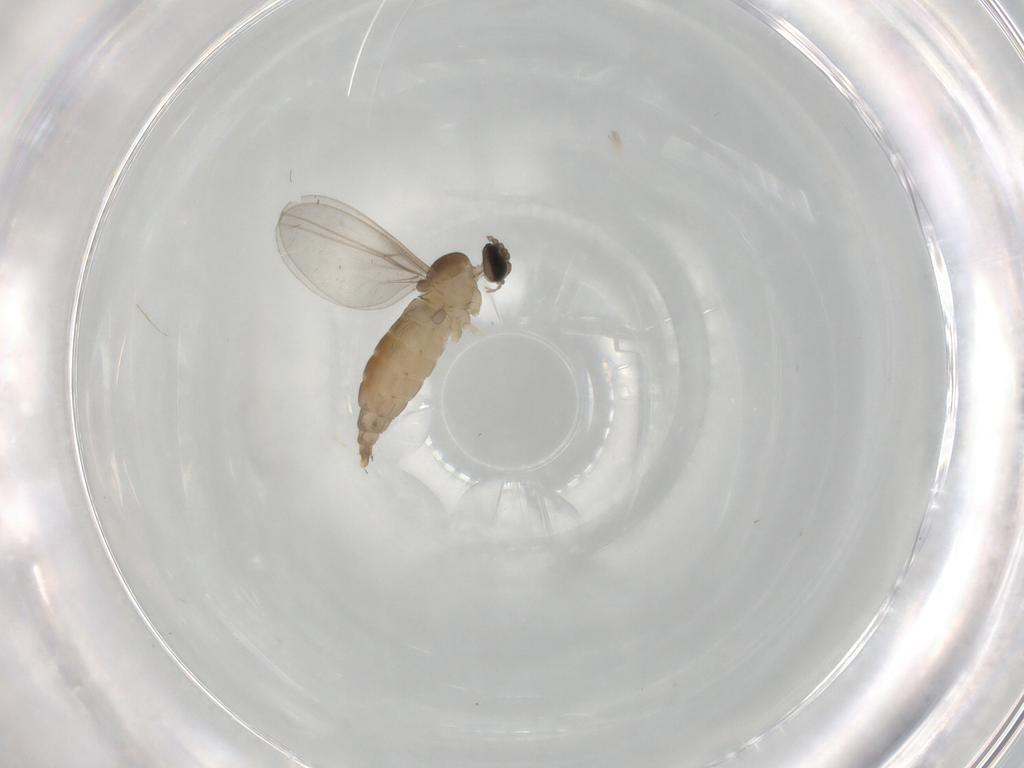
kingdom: Animalia
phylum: Arthropoda
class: Insecta
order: Diptera
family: Cecidomyiidae
